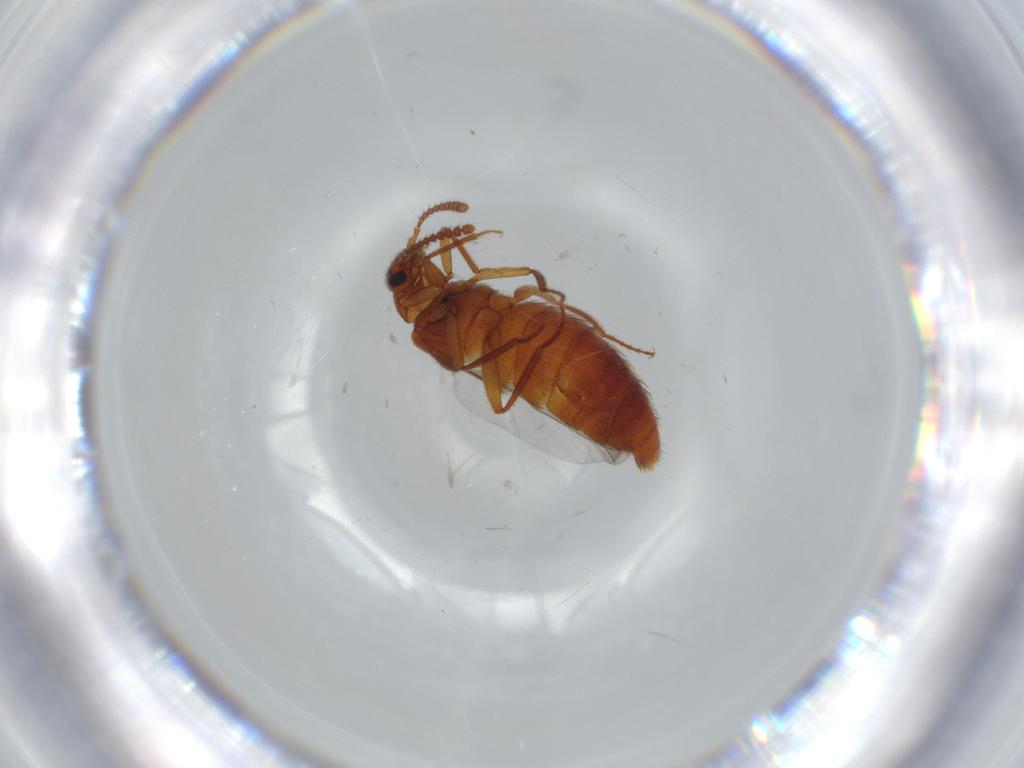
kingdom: Animalia
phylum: Arthropoda
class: Insecta
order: Coleoptera
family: Staphylinidae
